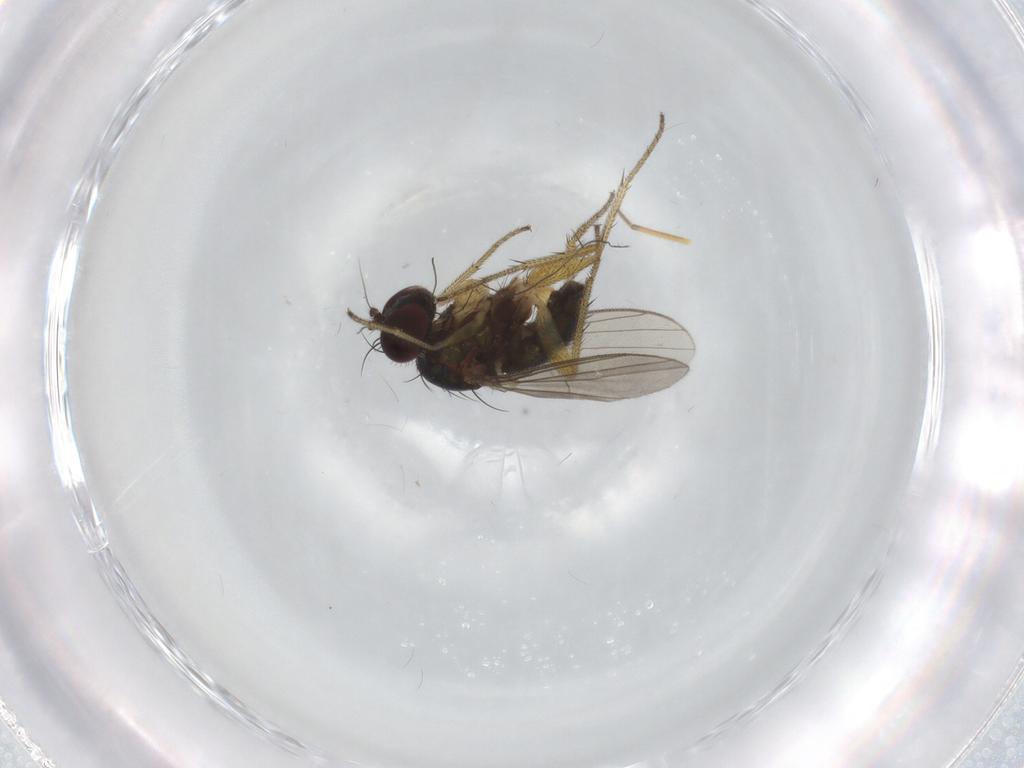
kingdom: Animalia
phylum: Arthropoda
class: Insecta
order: Diptera
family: Dolichopodidae
